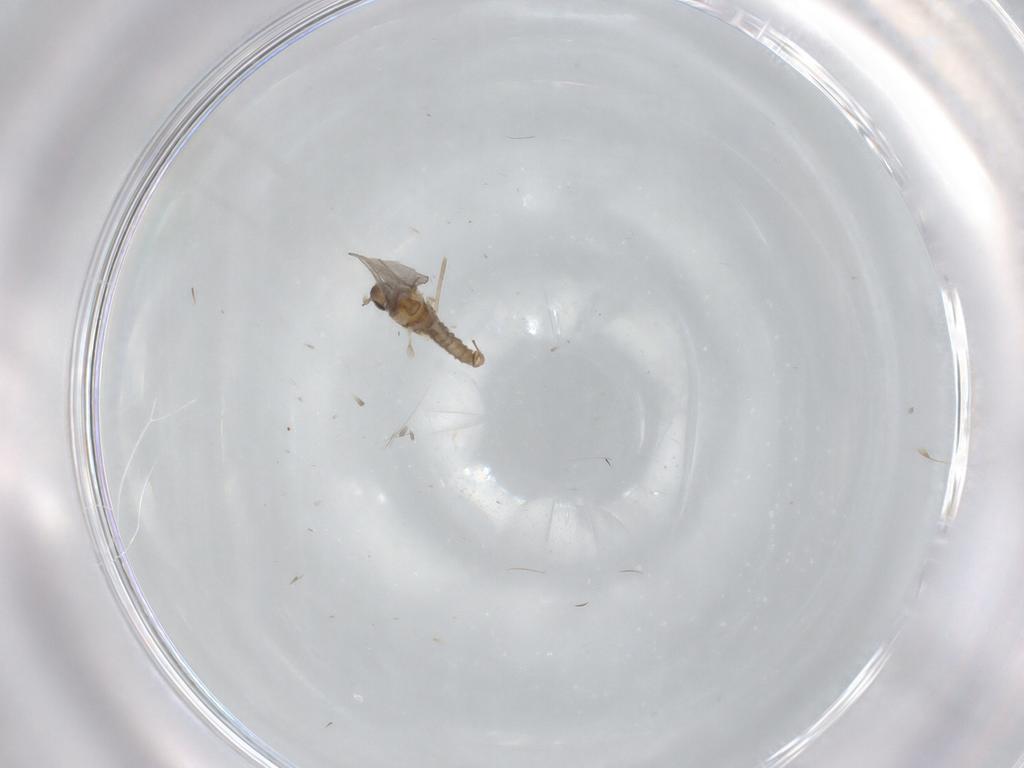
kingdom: Animalia
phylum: Arthropoda
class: Insecta
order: Diptera
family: Cecidomyiidae
